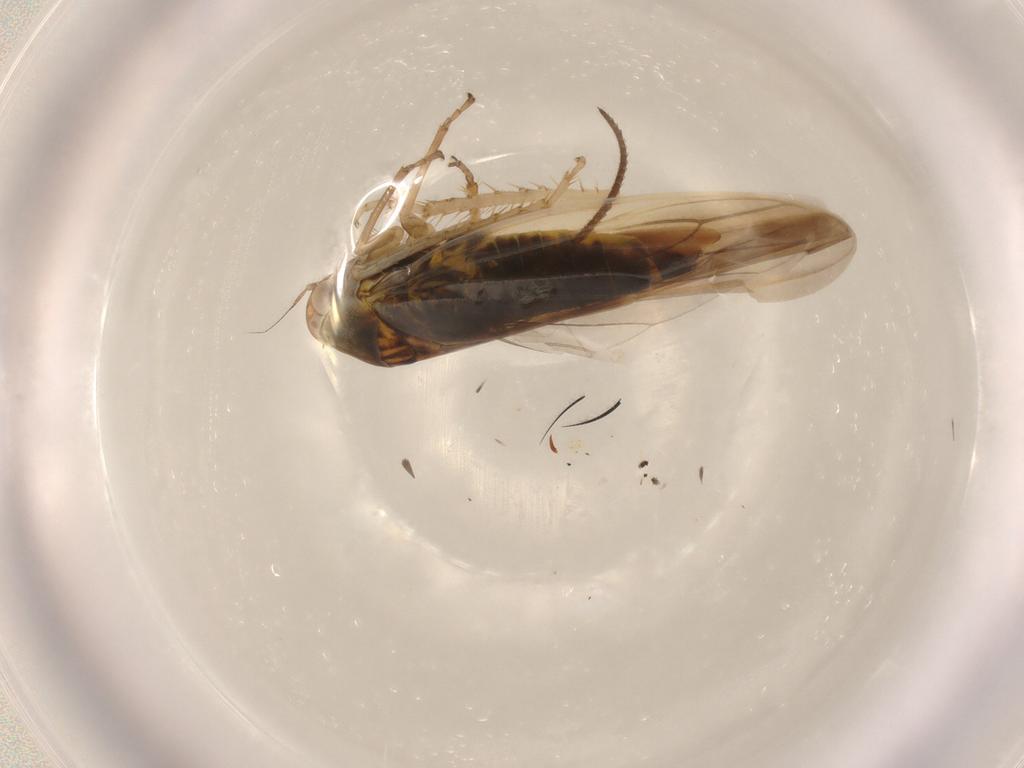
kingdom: Animalia
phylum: Arthropoda
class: Insecta
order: Hemiptera
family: Cicadellidae
